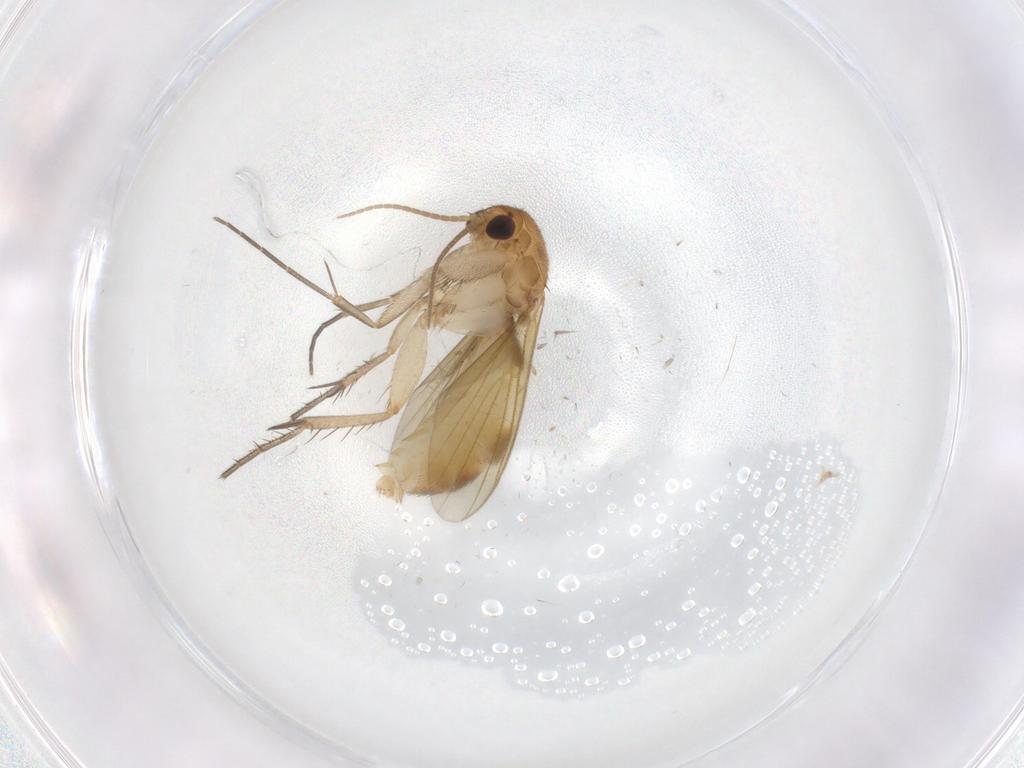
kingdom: Animalia
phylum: Arthropoda
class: Insecta
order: Diptera
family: Mycetophilidae
